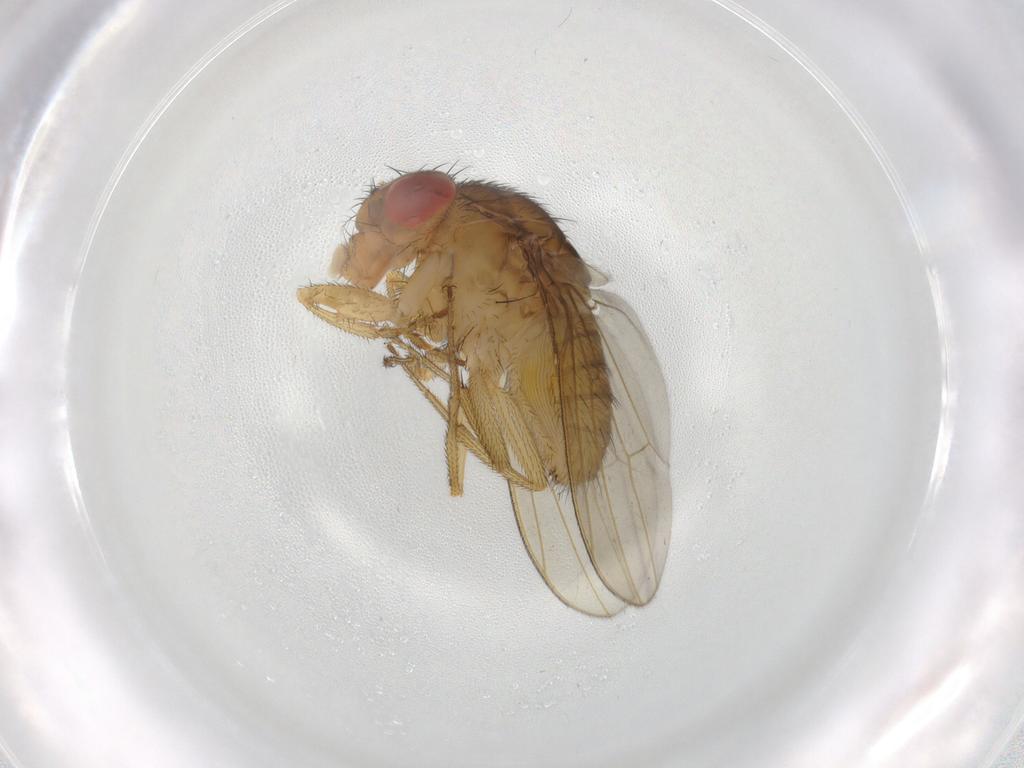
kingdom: Animalia
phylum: Arthropoda
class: Insecta
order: Diptera
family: Drosophilidae
